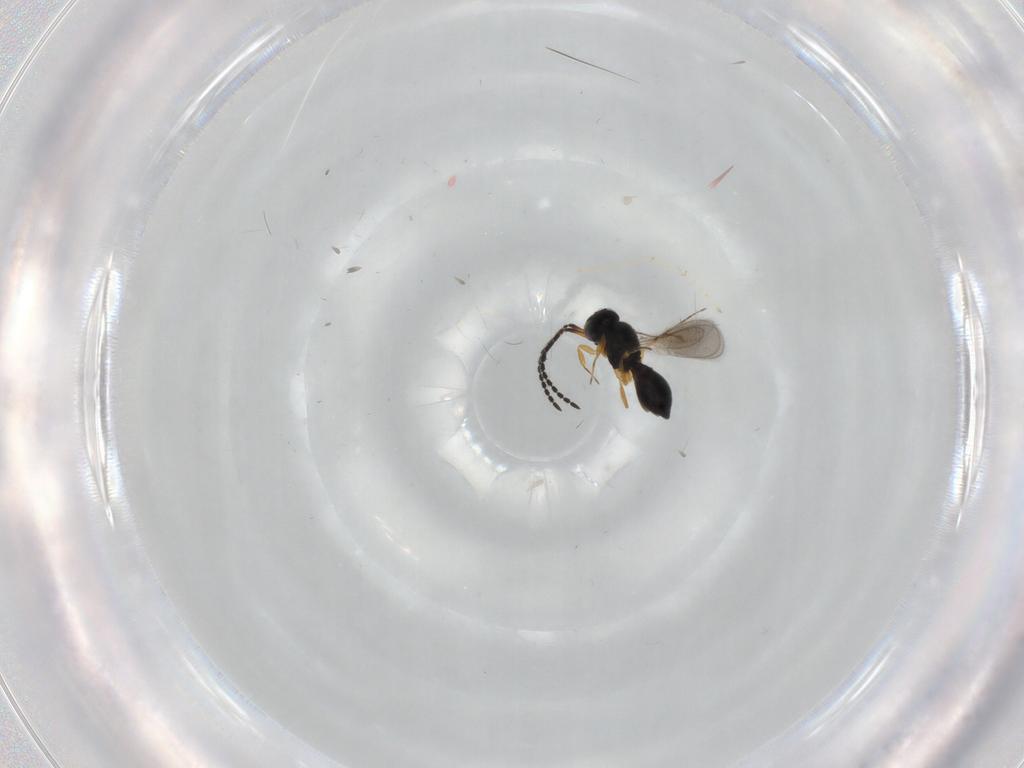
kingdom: Animalia
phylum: Arthropoda
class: Insecta
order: Hymenoptera
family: Scelionidae
